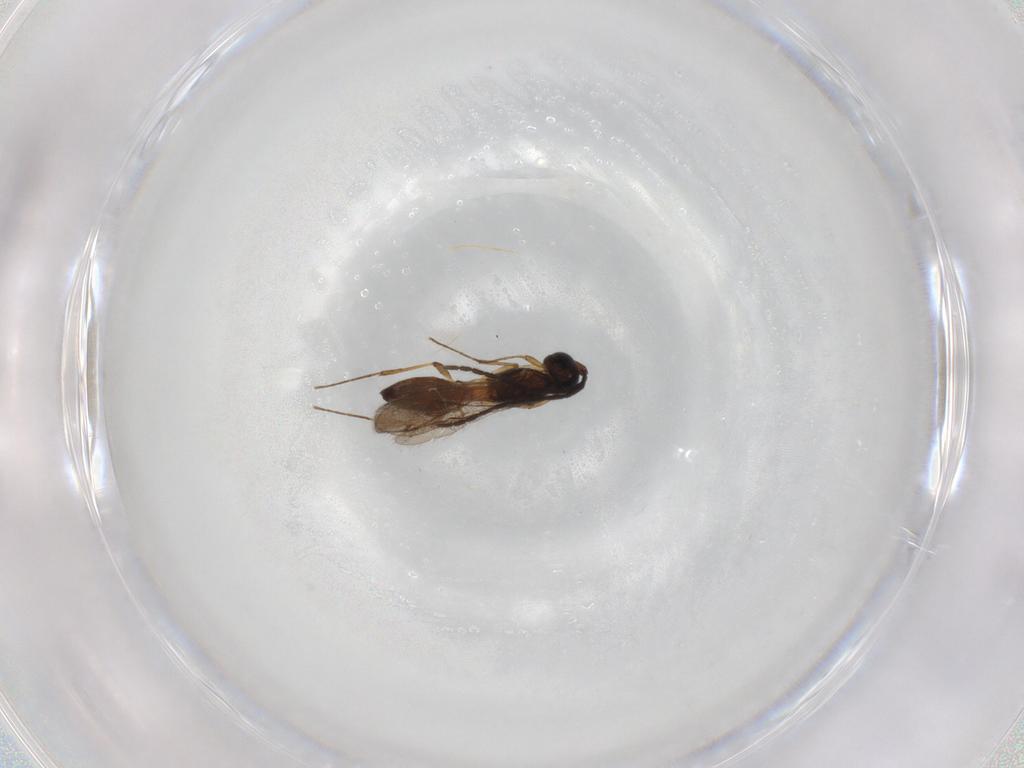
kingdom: Animalia
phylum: Arthropoda
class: Insecta
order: Hymenoptera
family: Scelionidae
